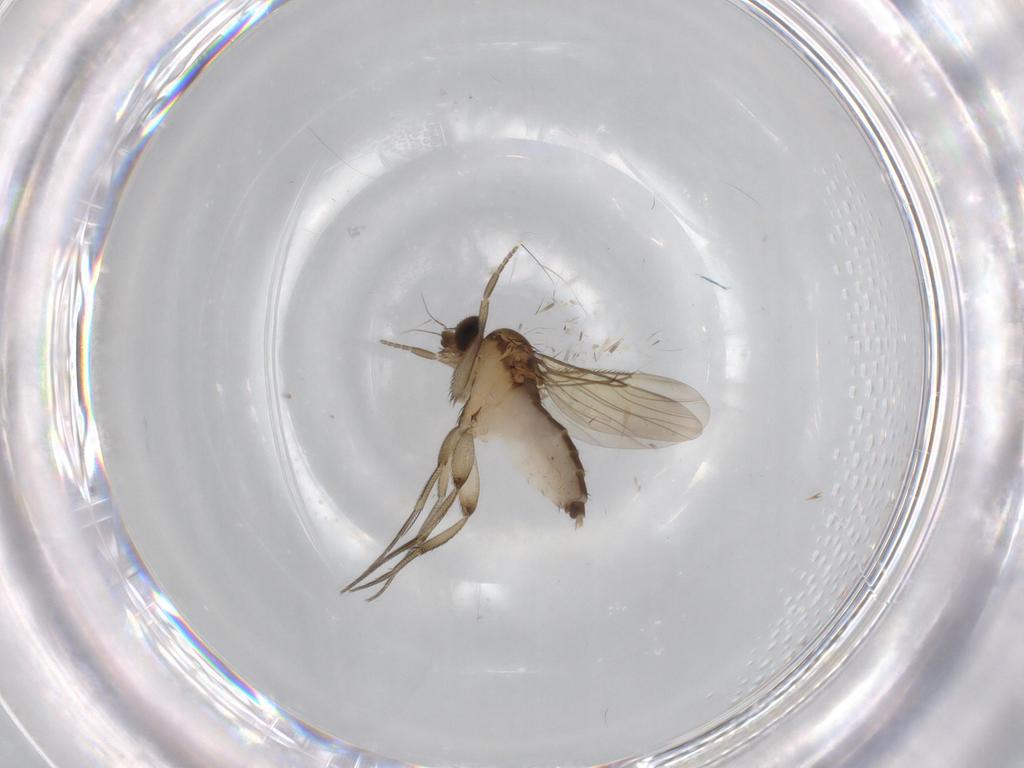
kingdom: Animalia
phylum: Arthropoda
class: Insecta
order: Diptera
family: Phoridae
